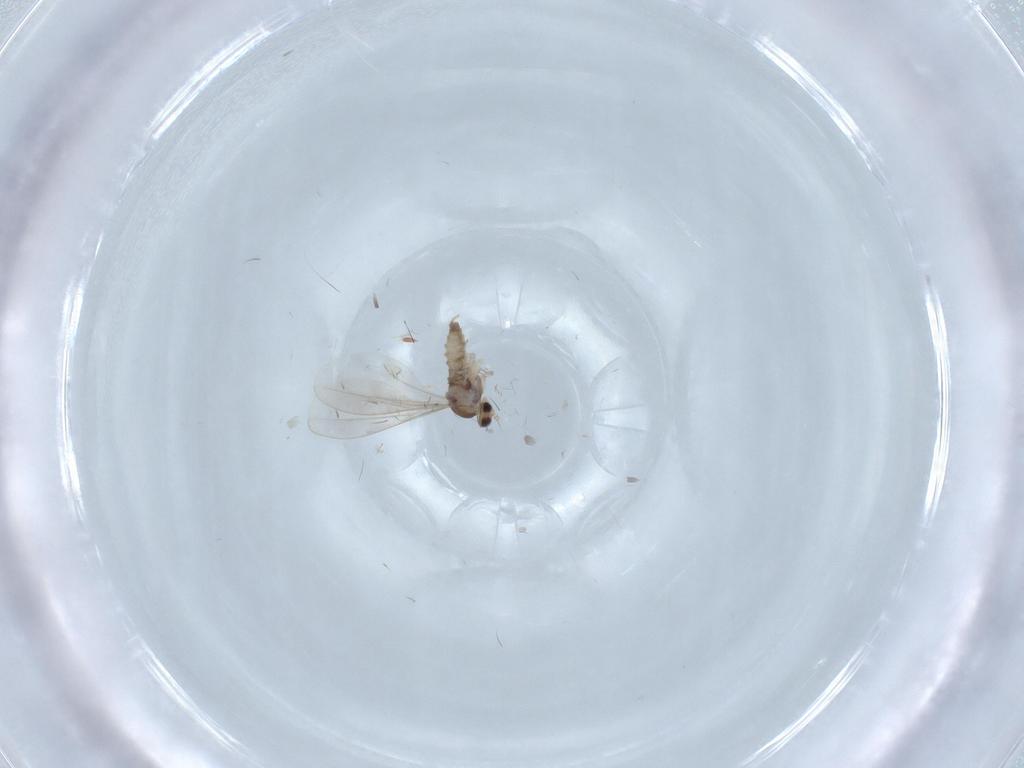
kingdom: Animalia
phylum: Arthropoda
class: Insecta
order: Diptera
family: Cecidomyiidae
